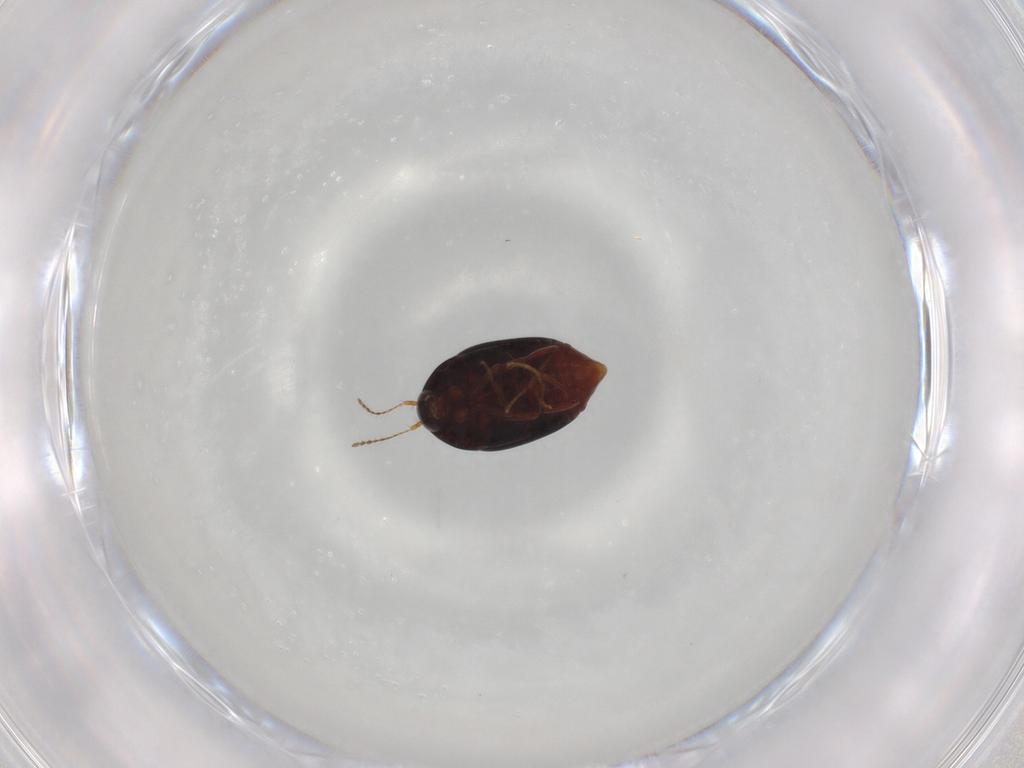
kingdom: Animalia
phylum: Arthropoda
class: Insecta
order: Coleoptera
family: Staphylinidae
